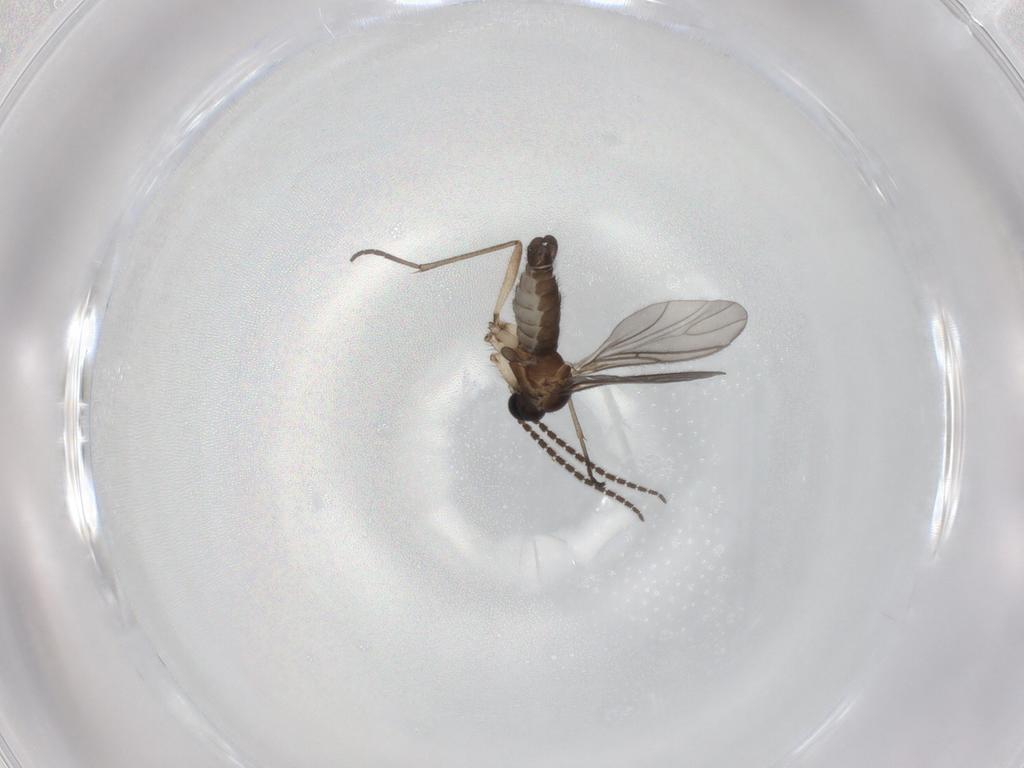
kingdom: Animalia
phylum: Arthropoda
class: Insecta
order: Diptera
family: Sciaridae
